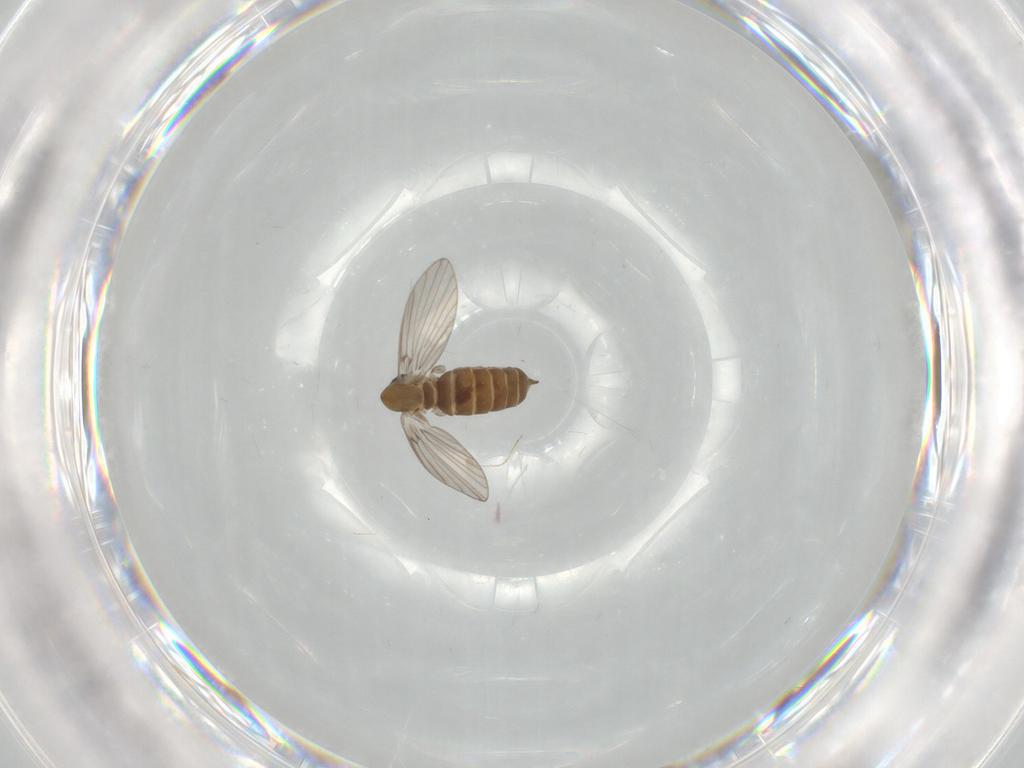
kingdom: Animalia
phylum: Arthropoda
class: Insecta
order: Diptera
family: Psychodidae
